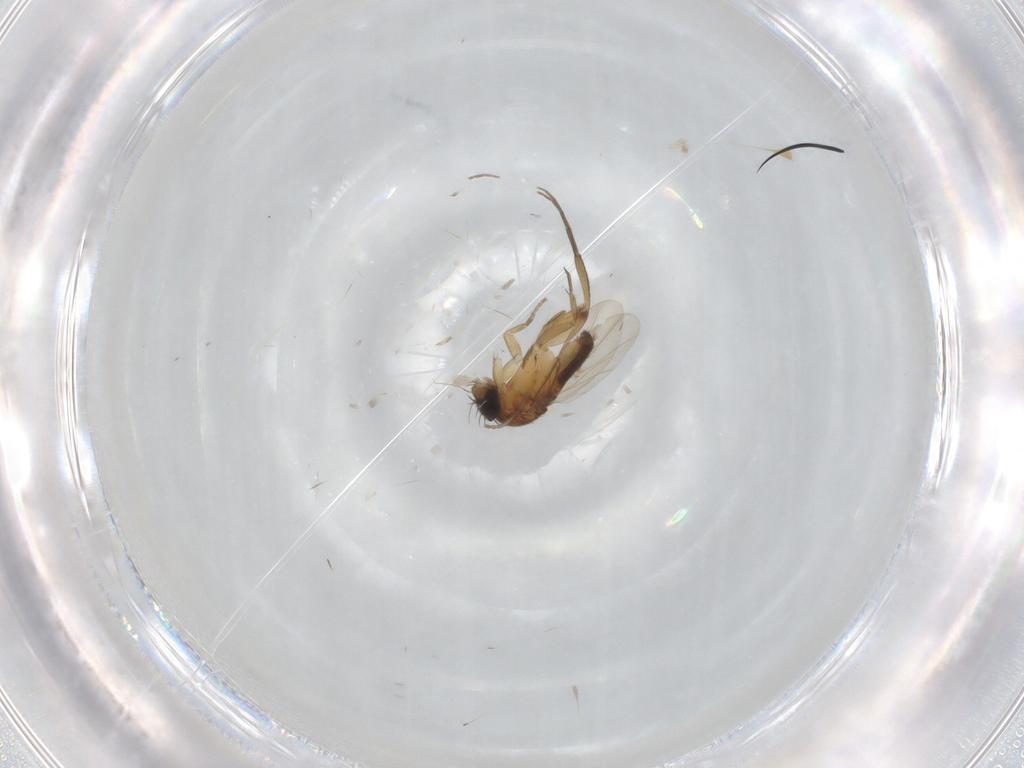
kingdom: Animalia
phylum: Arthropoda
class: Insecta
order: Diptera
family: Phoridae
